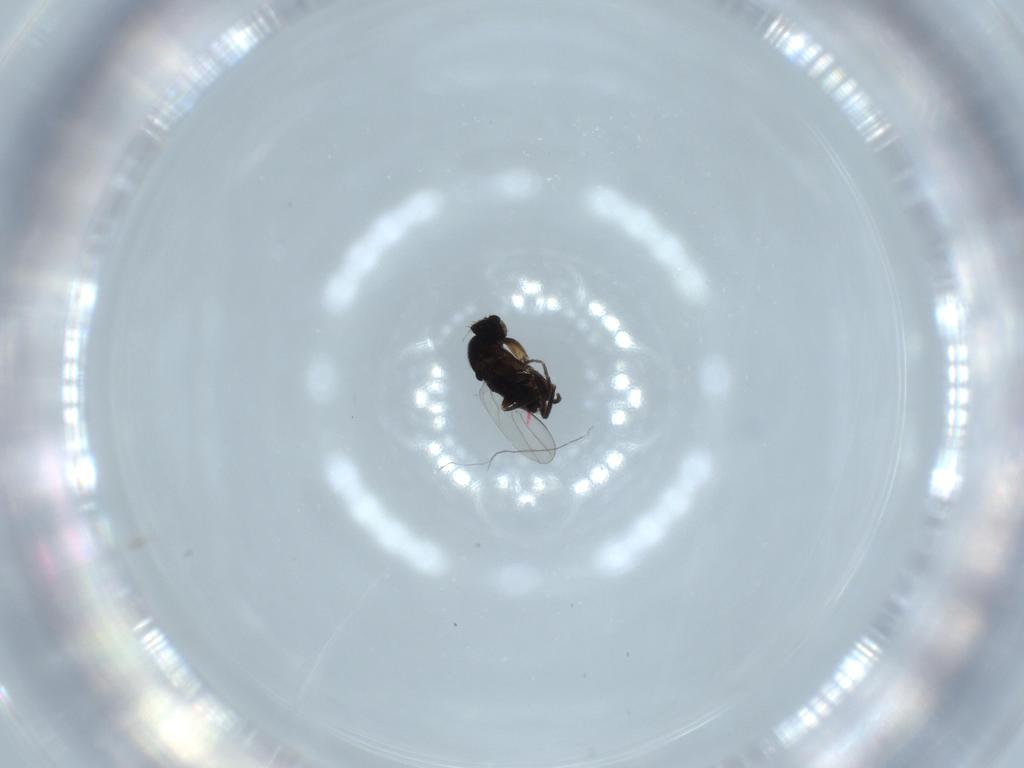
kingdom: Animalia
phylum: Arthropoda
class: Insecta
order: Diptera
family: Phoridae
